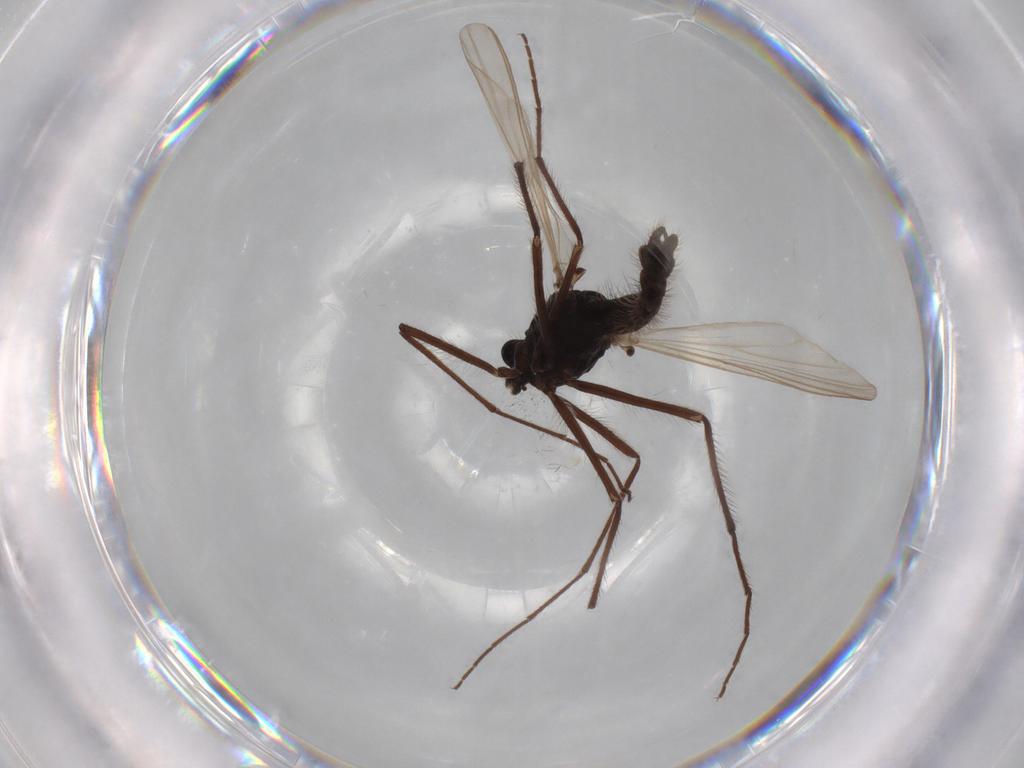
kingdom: Animalia
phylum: Arthropoda
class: Insecta
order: Diptera
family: Ceratopogonidae
